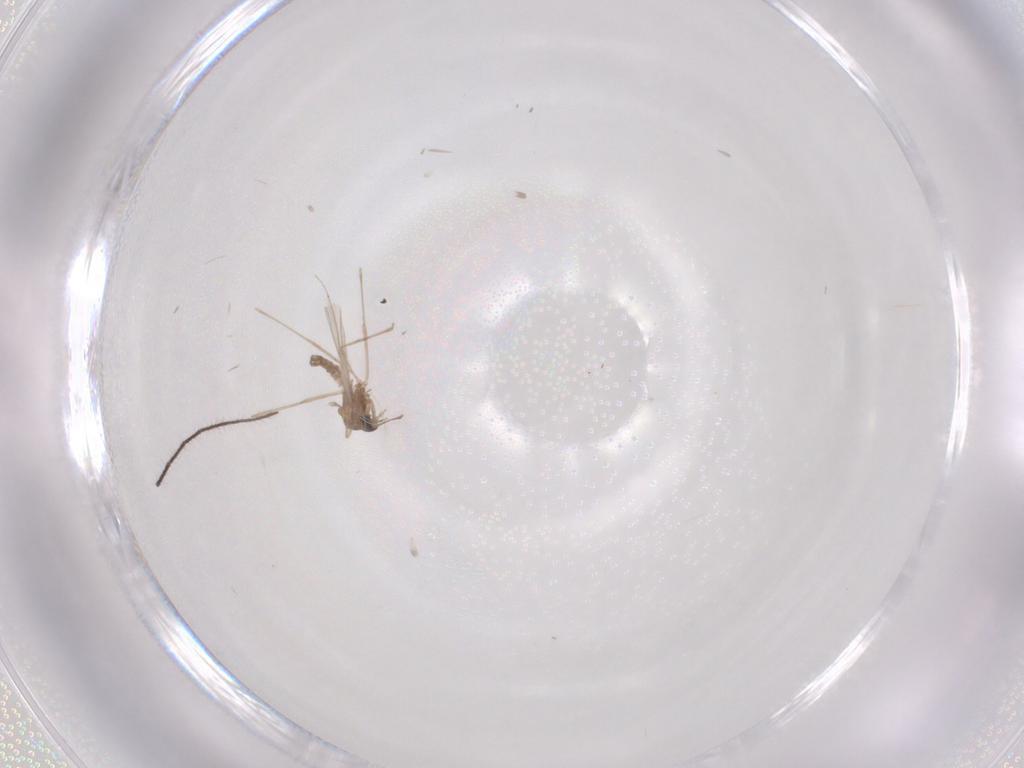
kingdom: Animalia
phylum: Arthropoda
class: Insecta
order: Diptera
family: Cecidomyiidae
